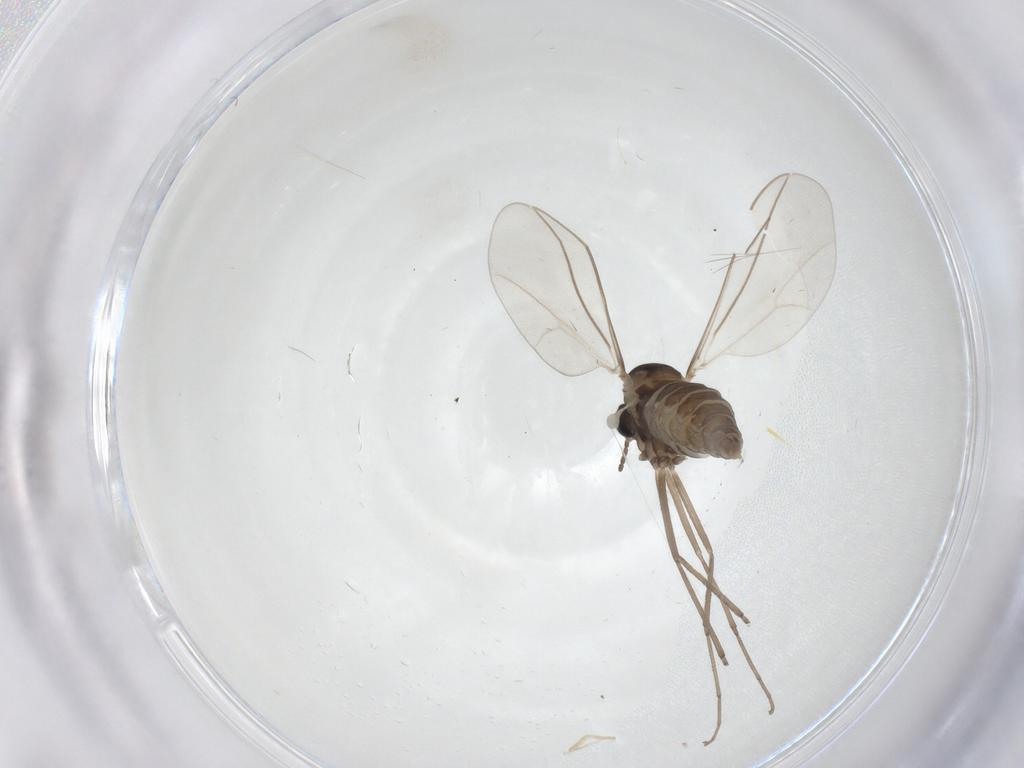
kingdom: Animalia
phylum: Arthropoda
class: Insecta
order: Diptera
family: Cecidomyiidae
